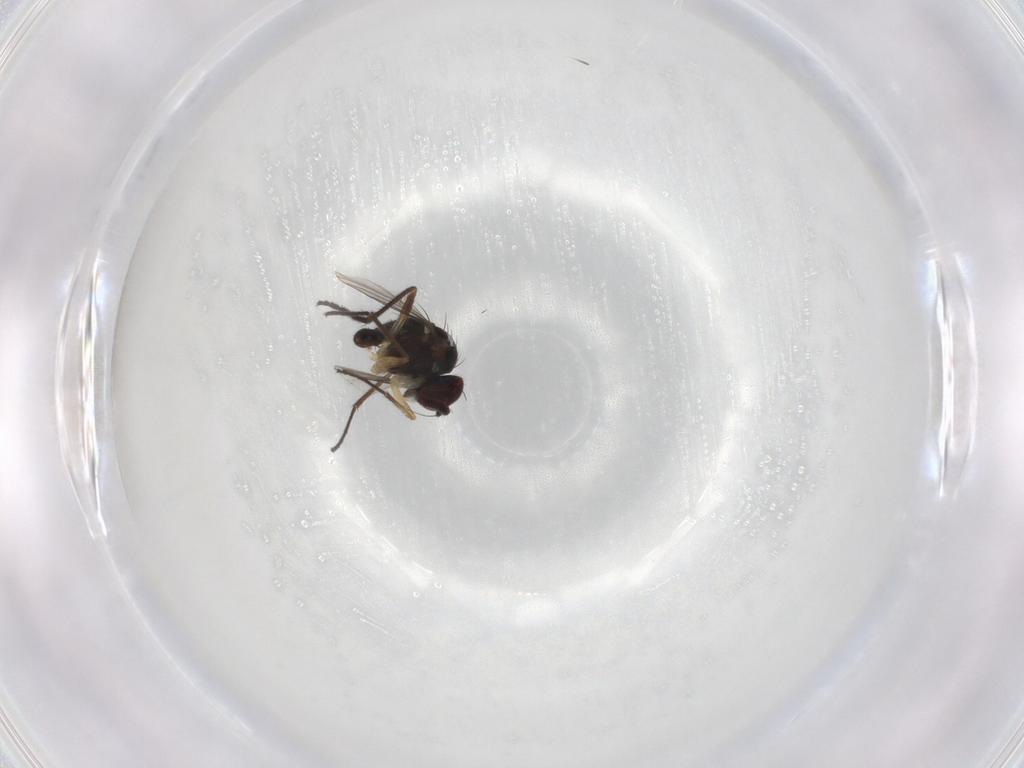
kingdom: Animalia
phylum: Arthropoda
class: Insecta
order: Diptera
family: Dolichopodidae
